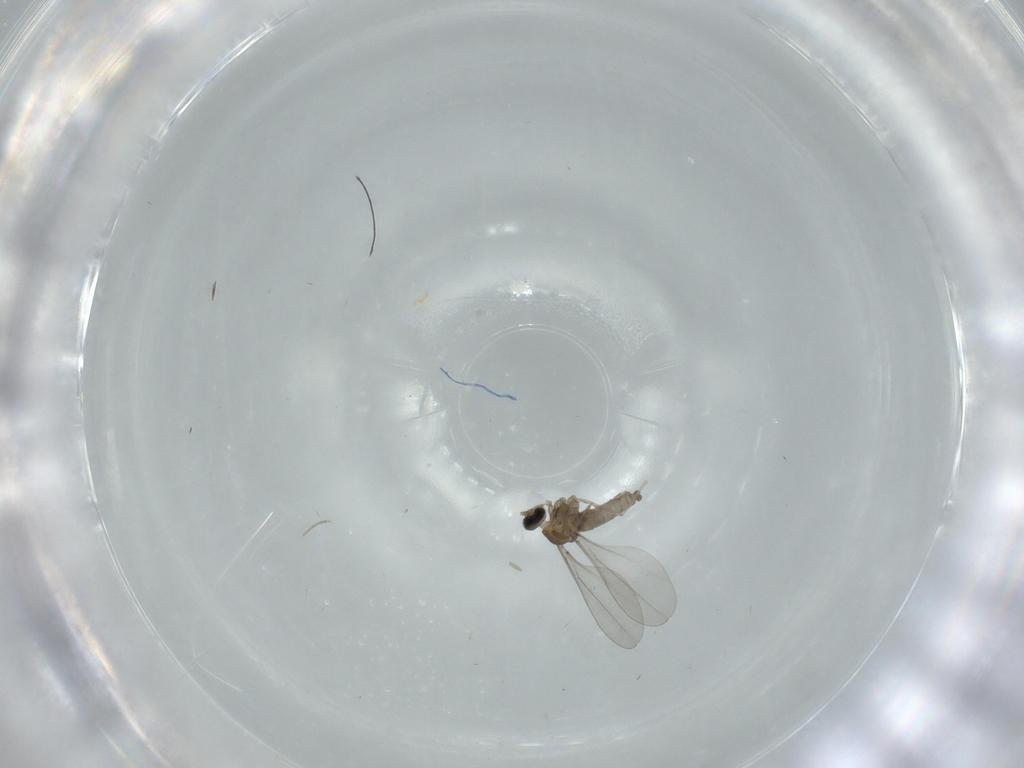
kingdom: Animalia
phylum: Arthropoda
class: Insecta
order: Diptera
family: Cecidomyiidae
